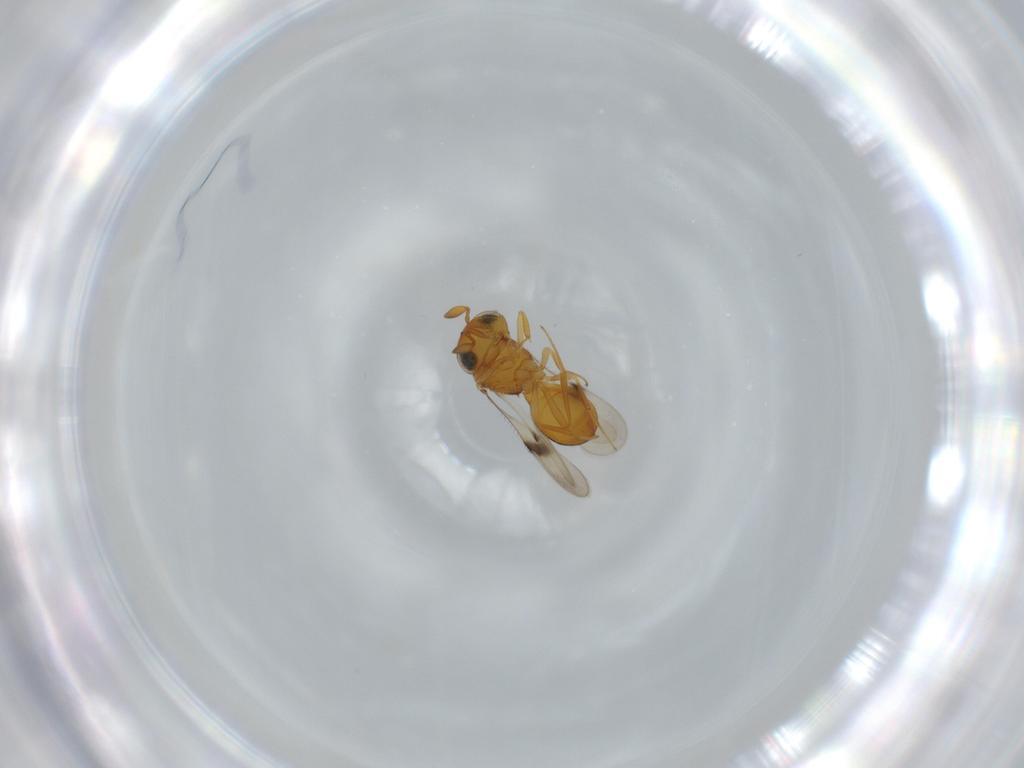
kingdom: Animalia
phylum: Arthropoda
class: Insecta
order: Hymenoptera
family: Scelionidae
